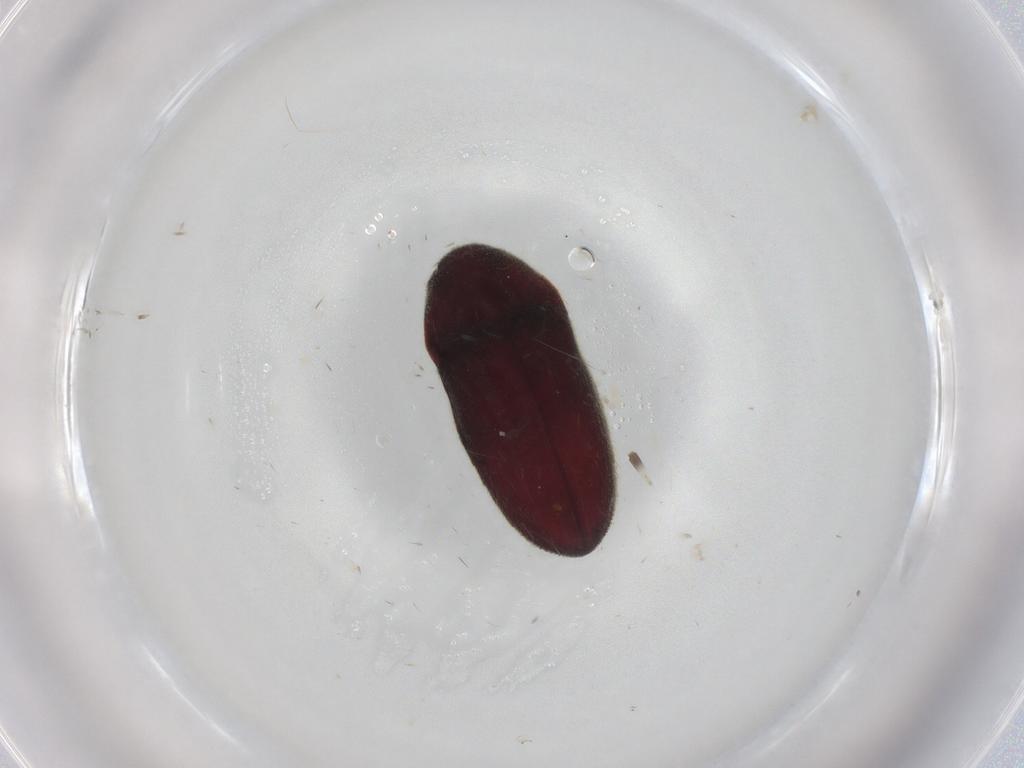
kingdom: Animalia
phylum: Arthropoda
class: Insecta
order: Coleoptera
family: Throscidae
